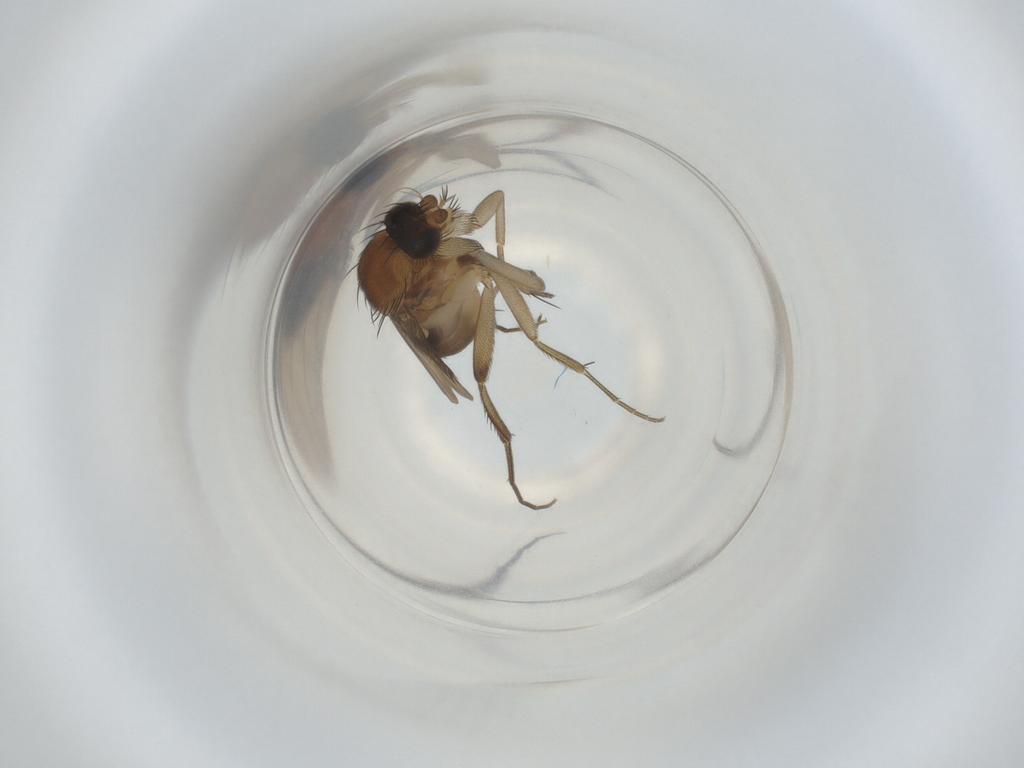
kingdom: Animalia
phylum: Arthropoda
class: Insecta
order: Diptera
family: Phoridae
